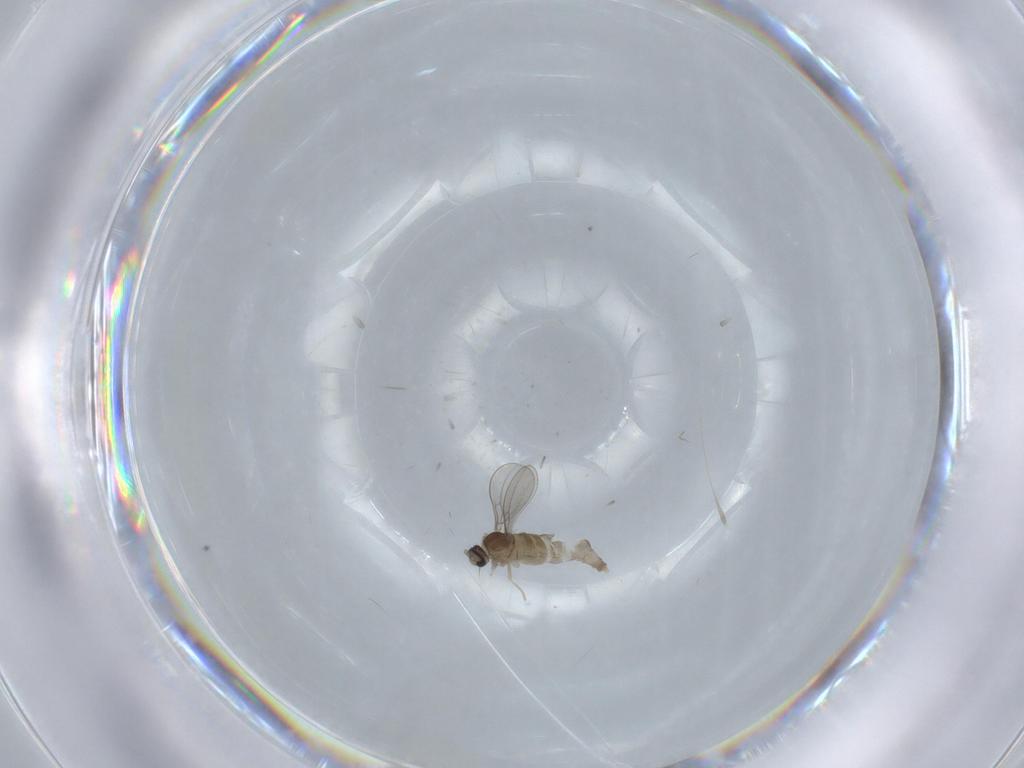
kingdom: Animalia
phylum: Arthropoda
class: Insecta
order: Diptera
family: Cecidomyiidae
